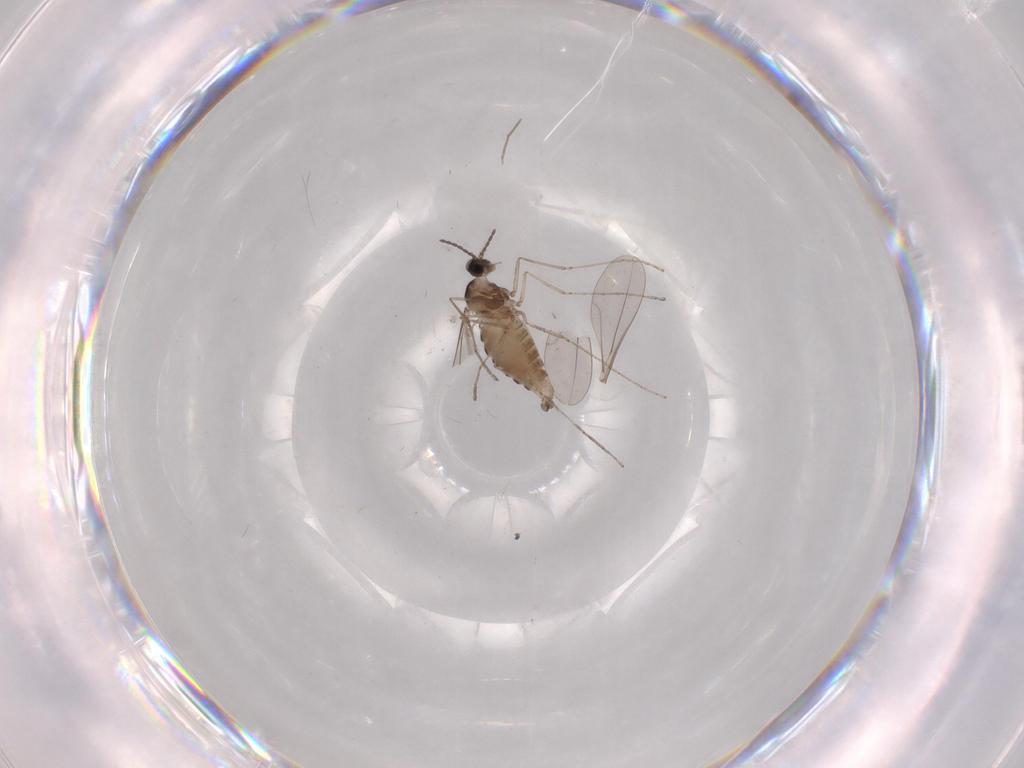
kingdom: Animalia
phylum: Arthropoda
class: Insecta
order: Diptera
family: Chironomidae
